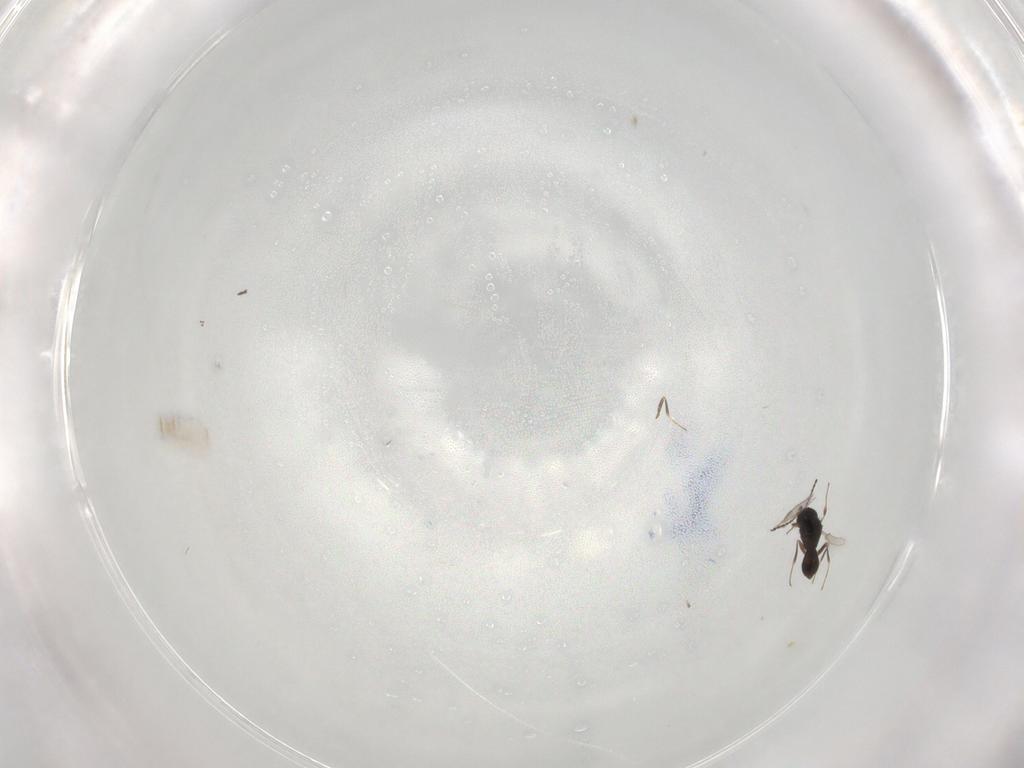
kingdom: Animalia
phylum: Arthropoda
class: Insecta
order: Hymenoptera
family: Scelionidae
